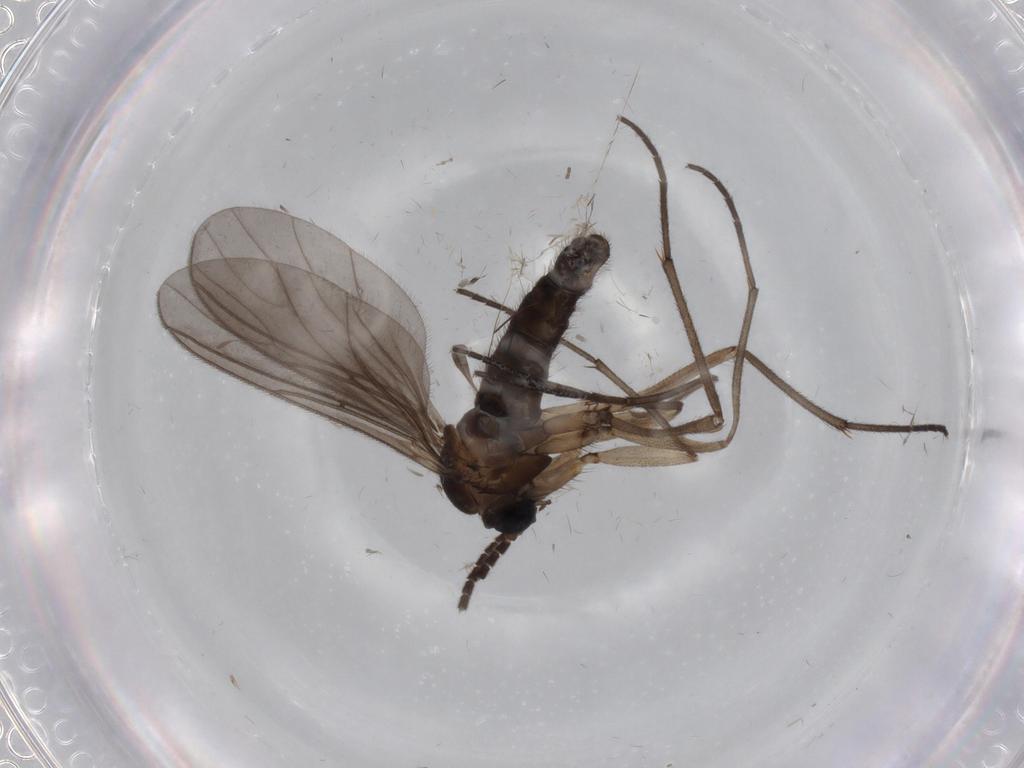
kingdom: Animalia
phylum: Arthropoda
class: Insecta
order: Diptera
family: Sciaridae
